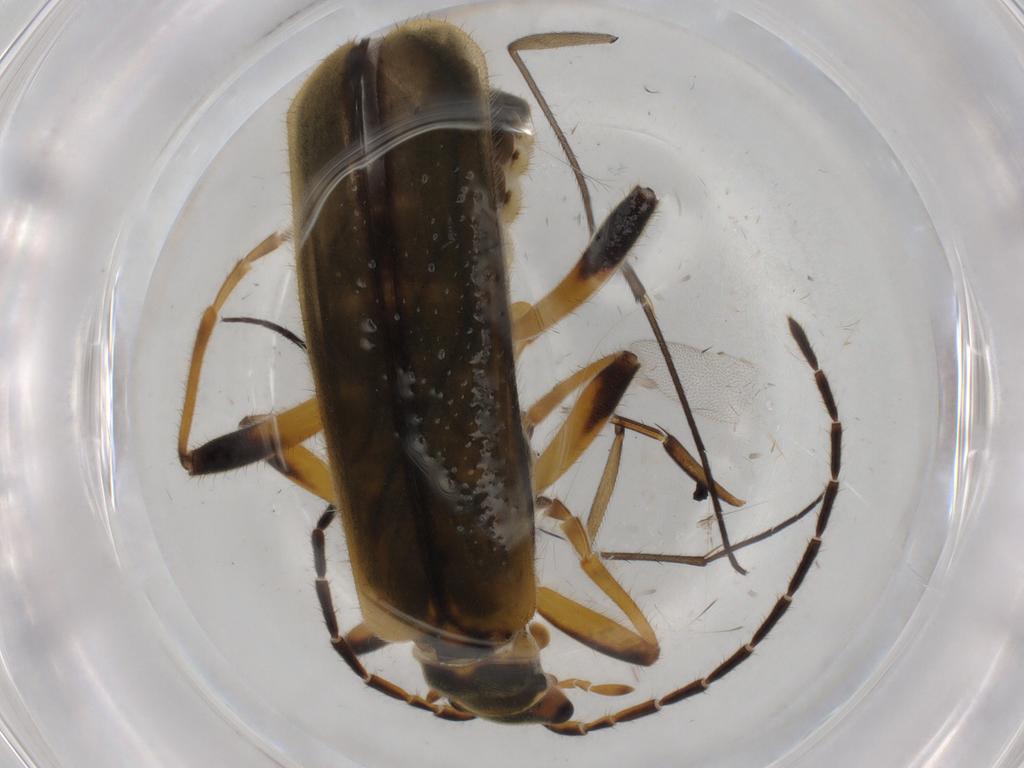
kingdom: Animalia
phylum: Arthropoda
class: Insecta
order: Coleoptera
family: Cantharidae
